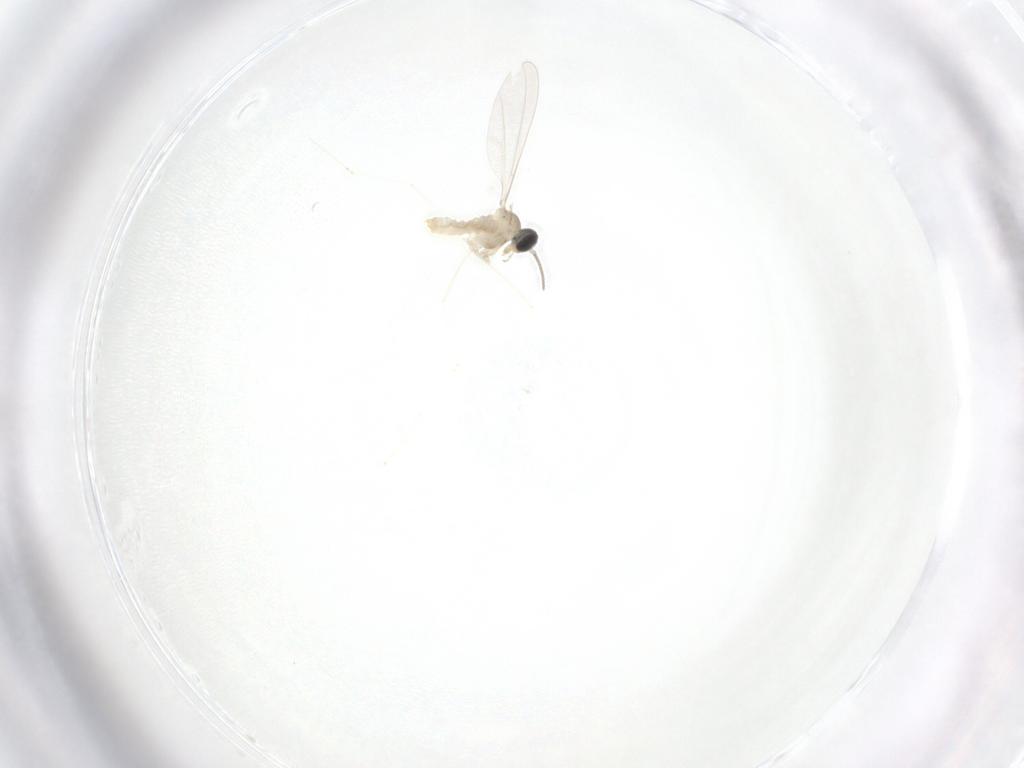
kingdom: Animalia
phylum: Arthropoda
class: Insecta
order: Diptera
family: Cecidomyiidae
